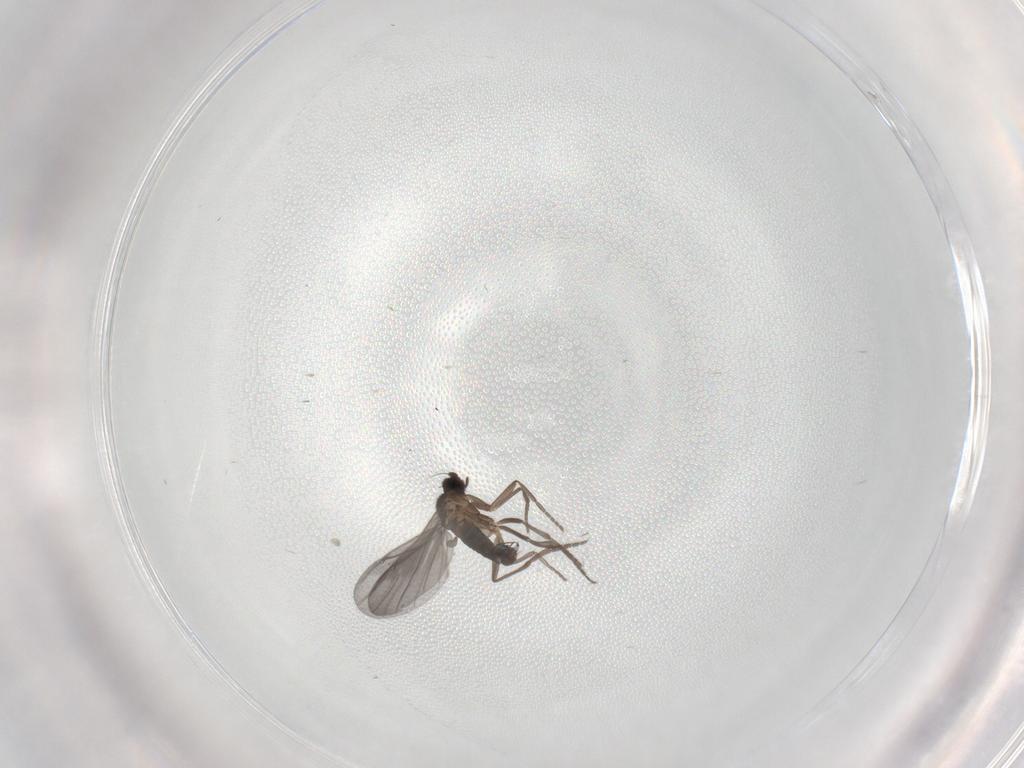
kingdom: Animalia
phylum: Arthropoda
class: Insecta
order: Diptera
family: Phoridae
